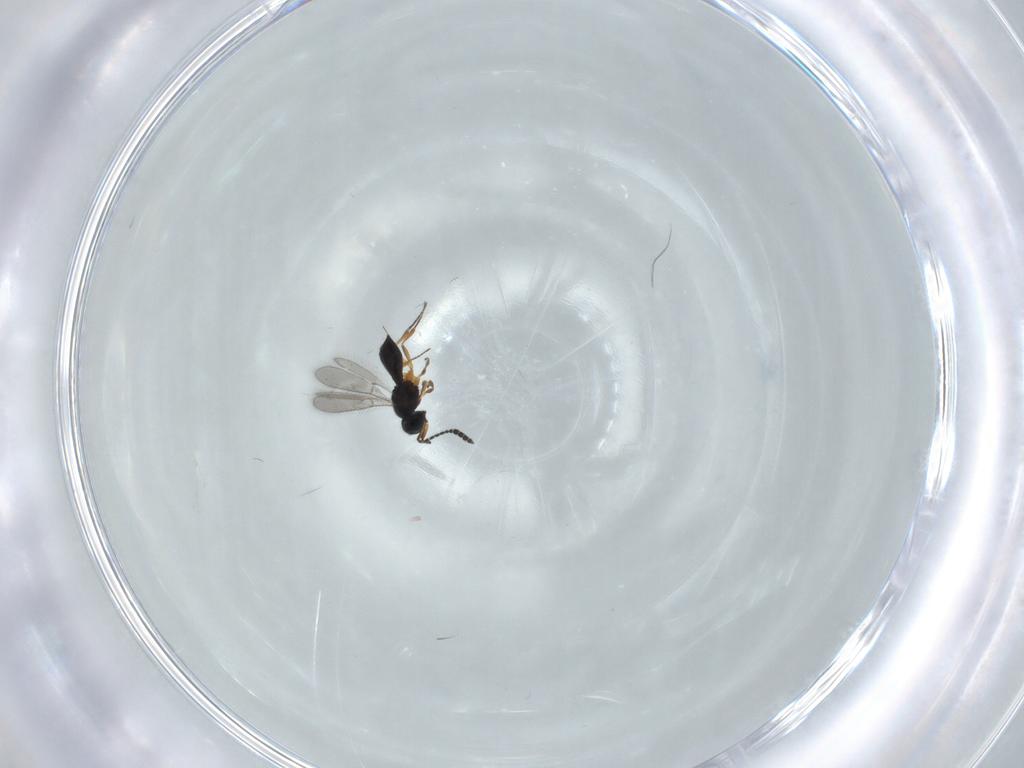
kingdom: Animalia
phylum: Arthropoda
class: Insecta
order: Hymenoptera
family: Scelionidae
